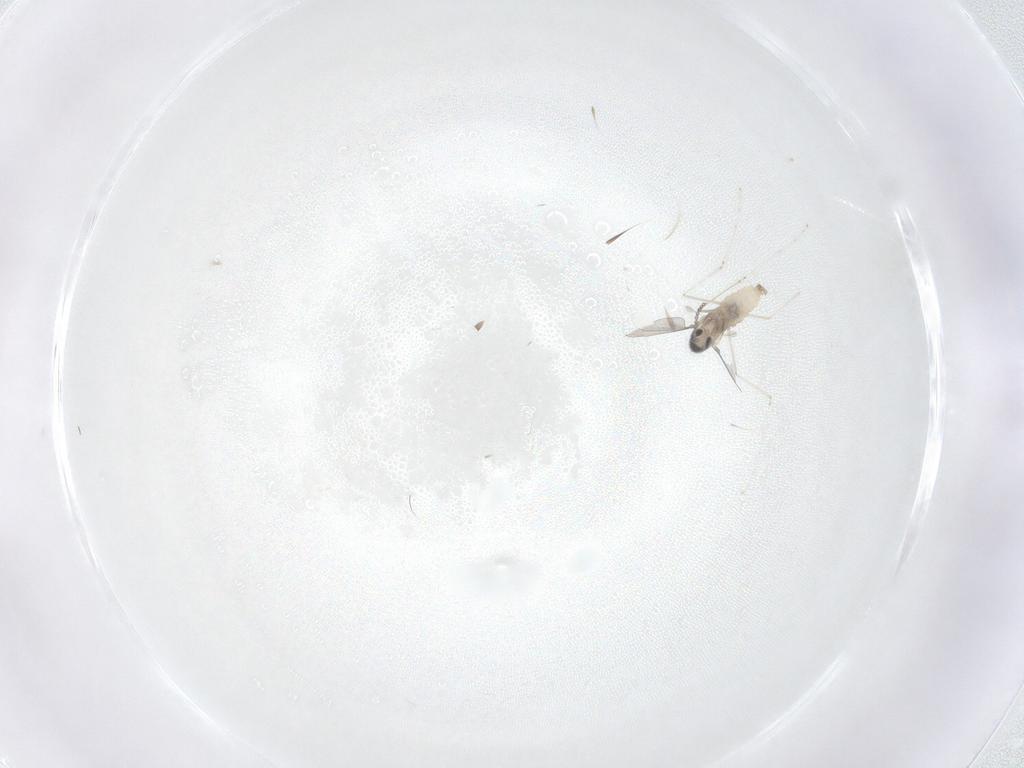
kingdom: Animalia
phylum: Arthropoda
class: Insecta
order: Diptera
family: Cecidomyiidae
